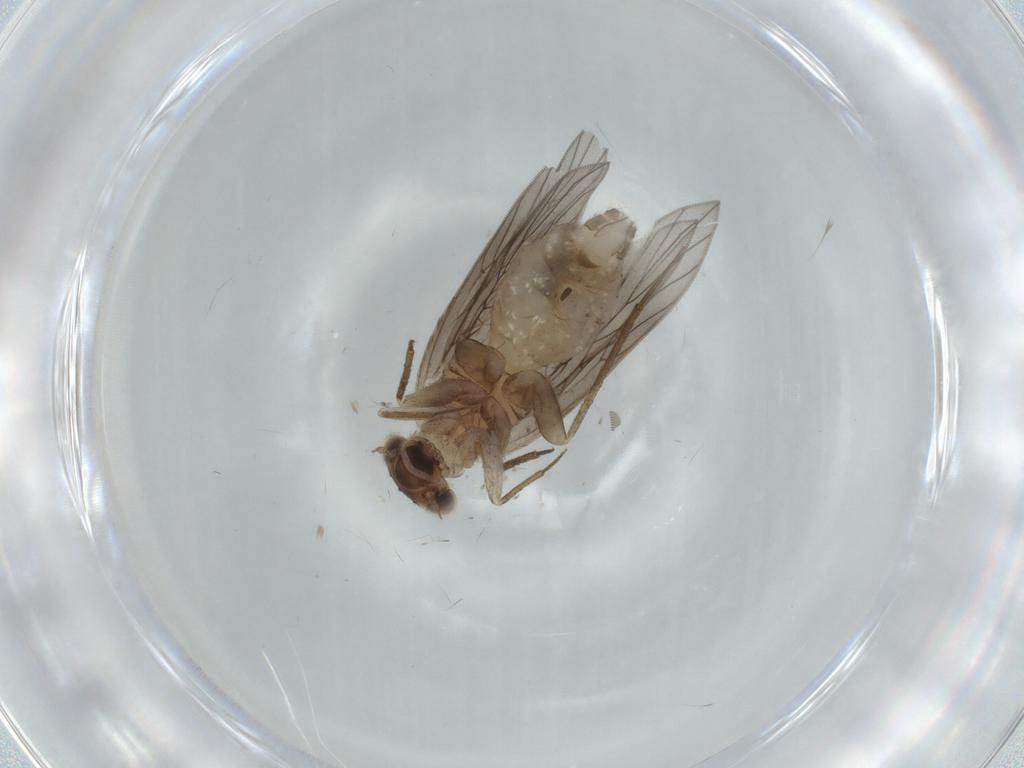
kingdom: Animalia
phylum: Arthropoda
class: Insecta
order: Psocodea
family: Lepidopsocidae
